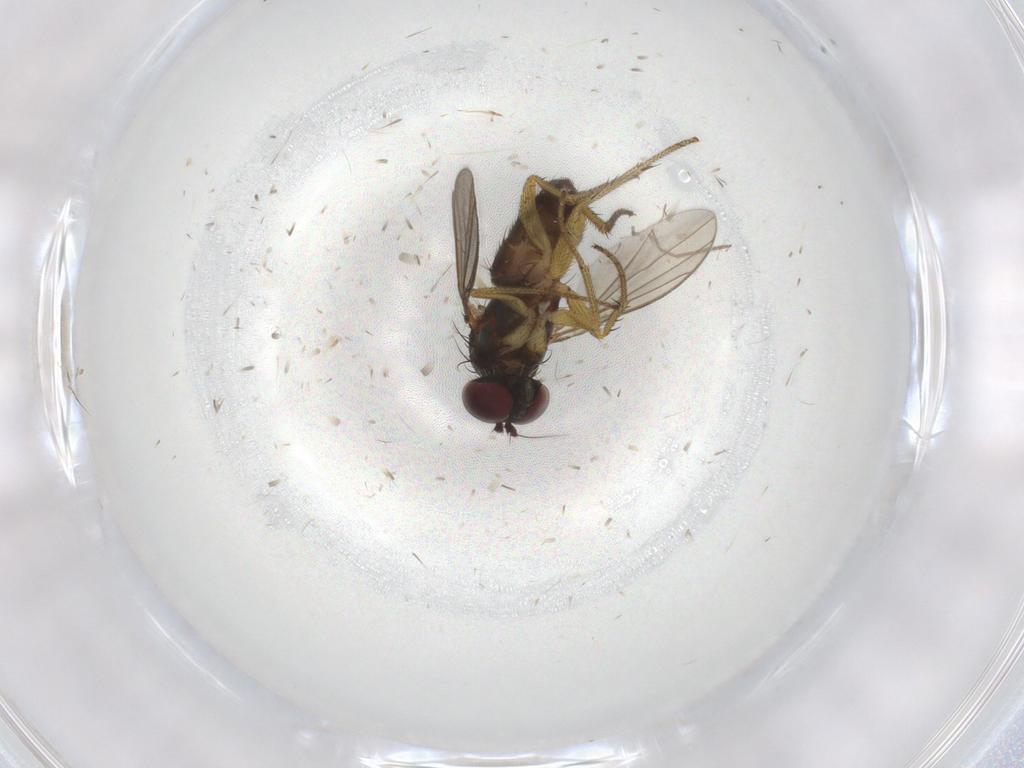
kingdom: Animalia
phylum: Arthropoda
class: Insecta
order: Diptera
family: Dolichopodidae
